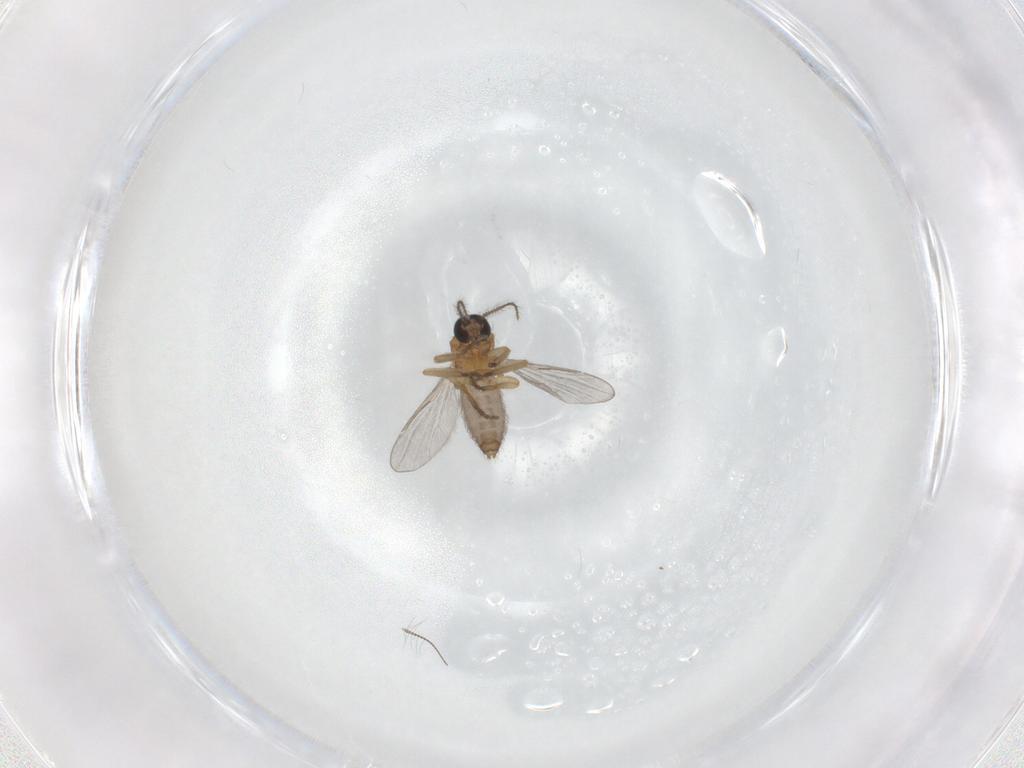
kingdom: Animalia
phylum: Arthropoda
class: Insecta
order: Diptera
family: Ceratopogonidae
